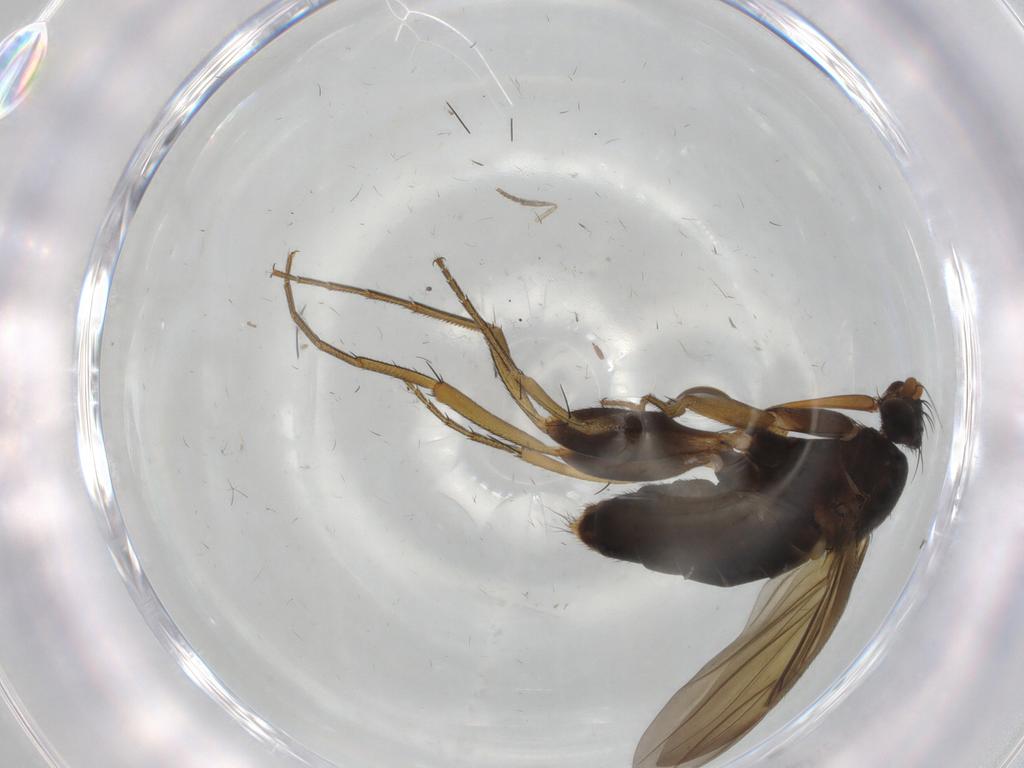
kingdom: Animalia
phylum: Arthropoda
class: Insecta
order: Diptera
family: Phoridae
